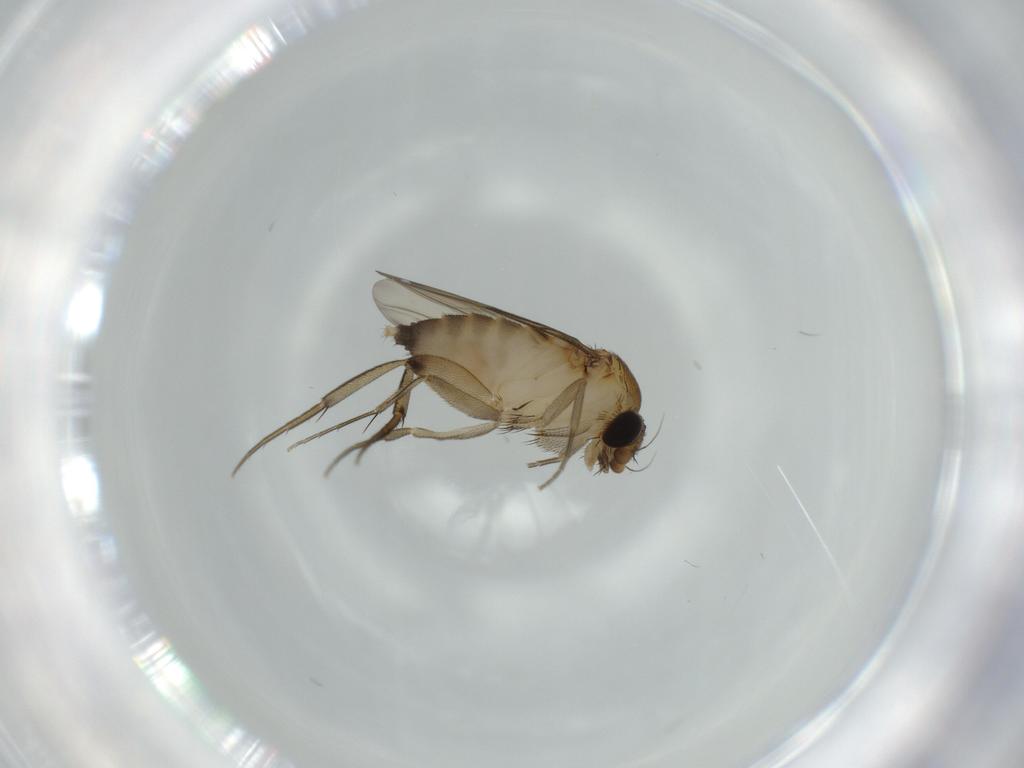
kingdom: Animalia
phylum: Arthropoda
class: Insecta
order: Diptera
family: Phoridae
